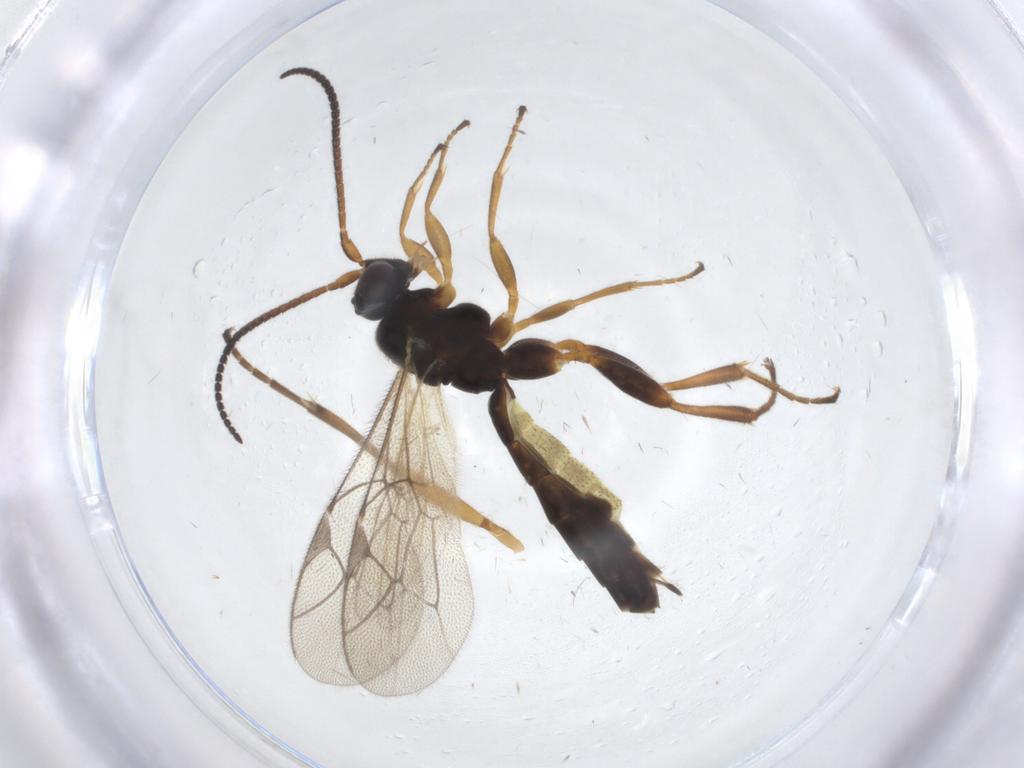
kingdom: Animalia
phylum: Arthropoda
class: Insecta
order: Hymenoptera
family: Ichneumonidae
